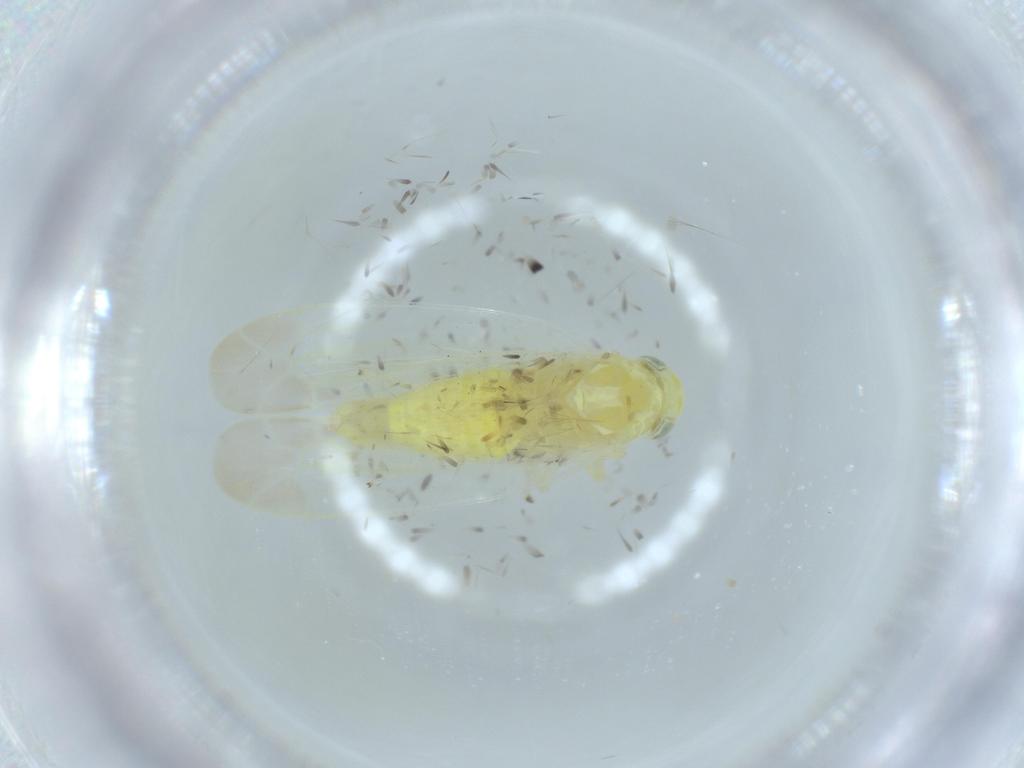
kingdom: Animalia
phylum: Arthropoda
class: Insecta
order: Hemiptera
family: Cicadellidae
